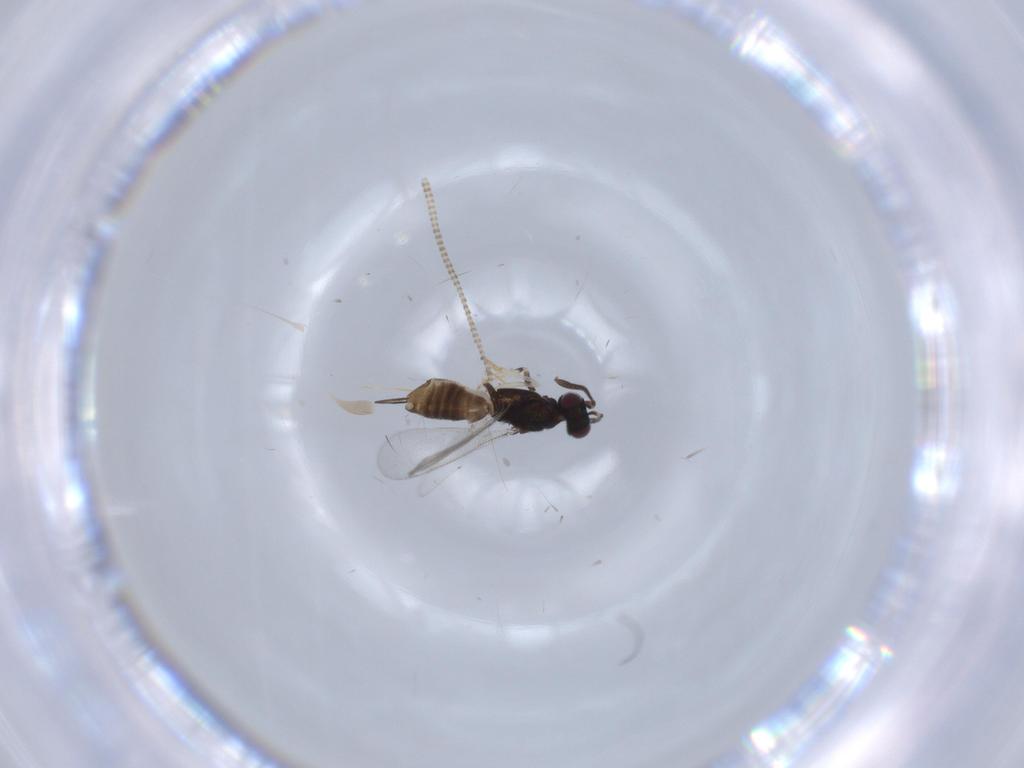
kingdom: Animalia
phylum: Arthropoda
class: Insecta
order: Hymenoptera
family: Eupelmidae
